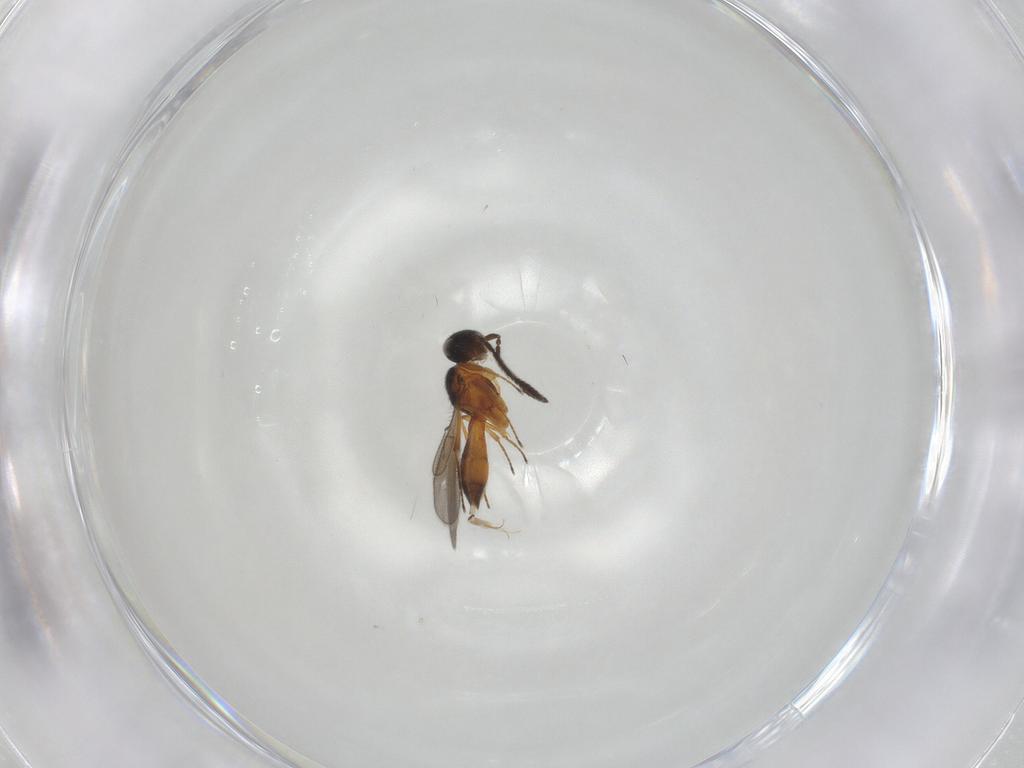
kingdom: Animalia
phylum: Arthropoda
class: Insecta
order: Hymenoptera
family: Scelionidae
